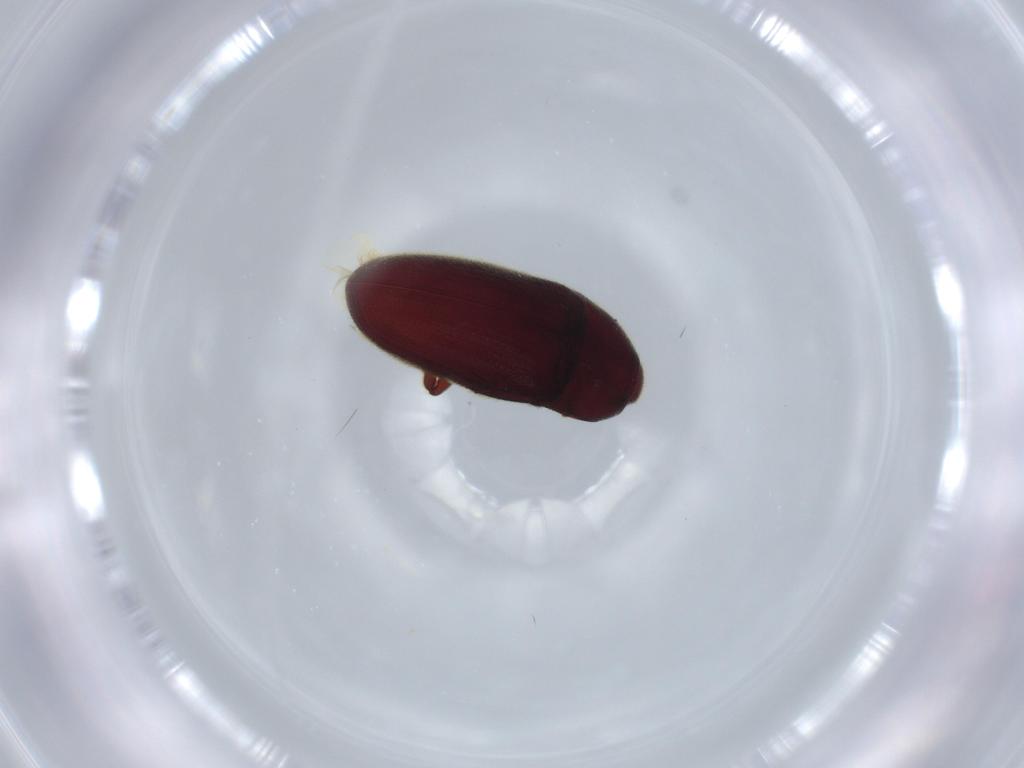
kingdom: Animalia
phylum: Arthropoda
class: Insecta
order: Coleoptera
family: Throscidae
